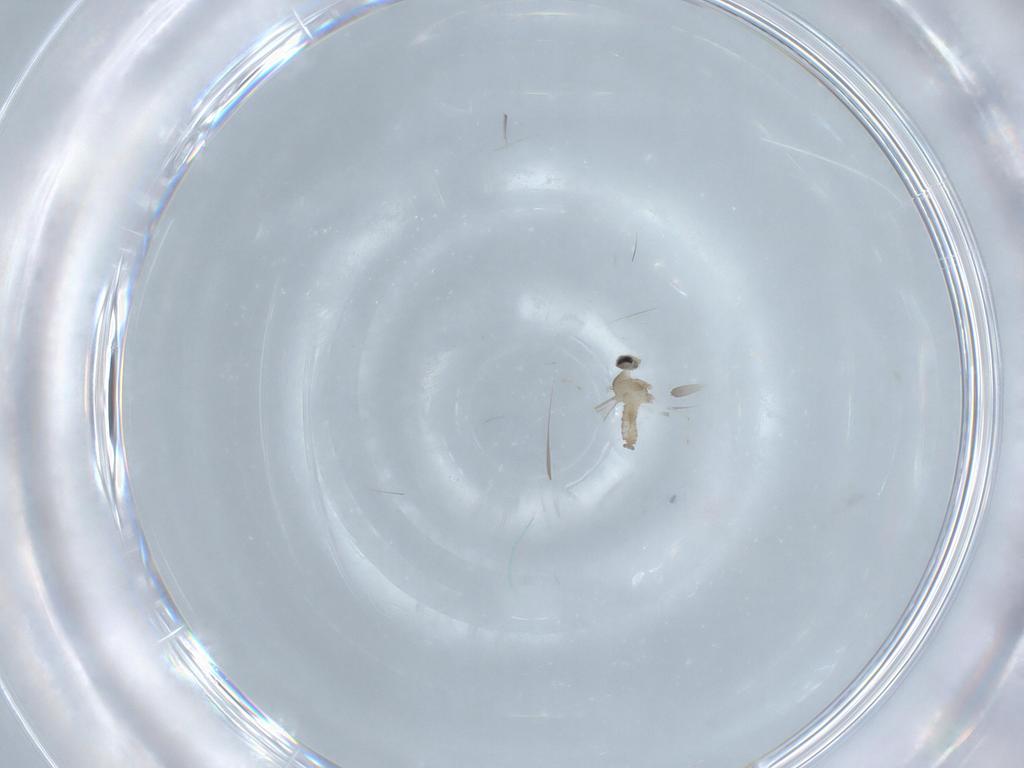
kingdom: Animalia
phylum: Arthropoda
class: Insecta
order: Diptera
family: Cecidomyiidae
